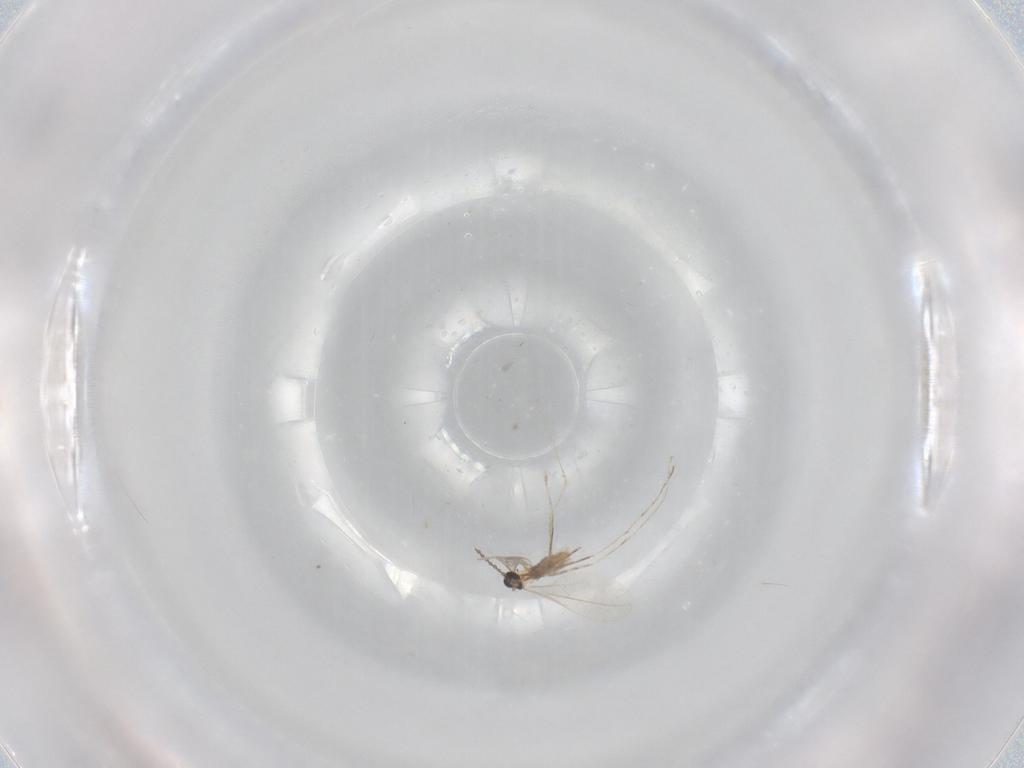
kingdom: Animalia
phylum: Arthropoda
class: Insecta
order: Diptera
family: Cecidomyiidae
